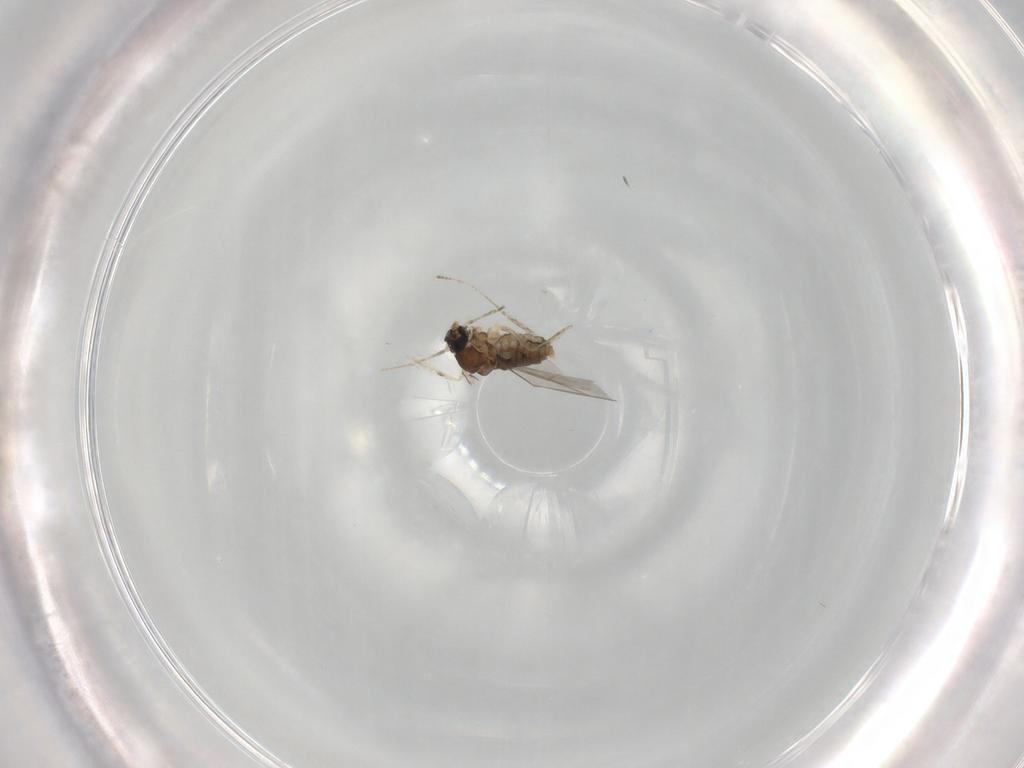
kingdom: Animalia
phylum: Arthropoda
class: Insecta
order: Diptera
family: Cecidomyiidae
